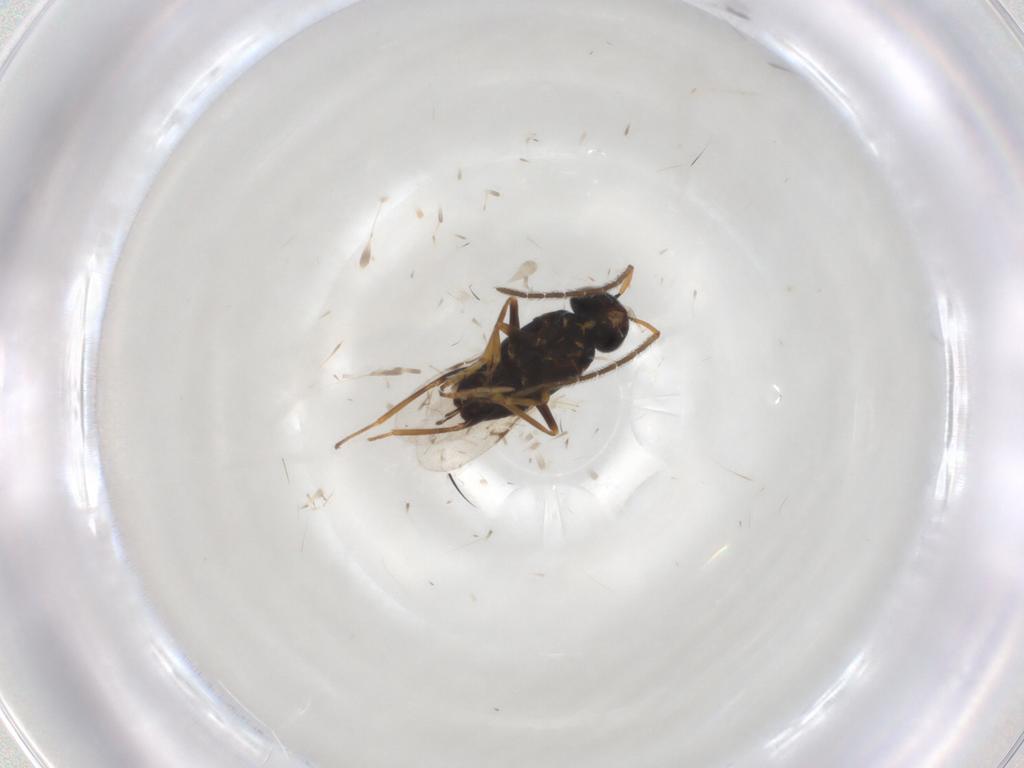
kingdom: Animalia
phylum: Arthropoda
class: Insecta
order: Hymenoptera
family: Encyrtidae
